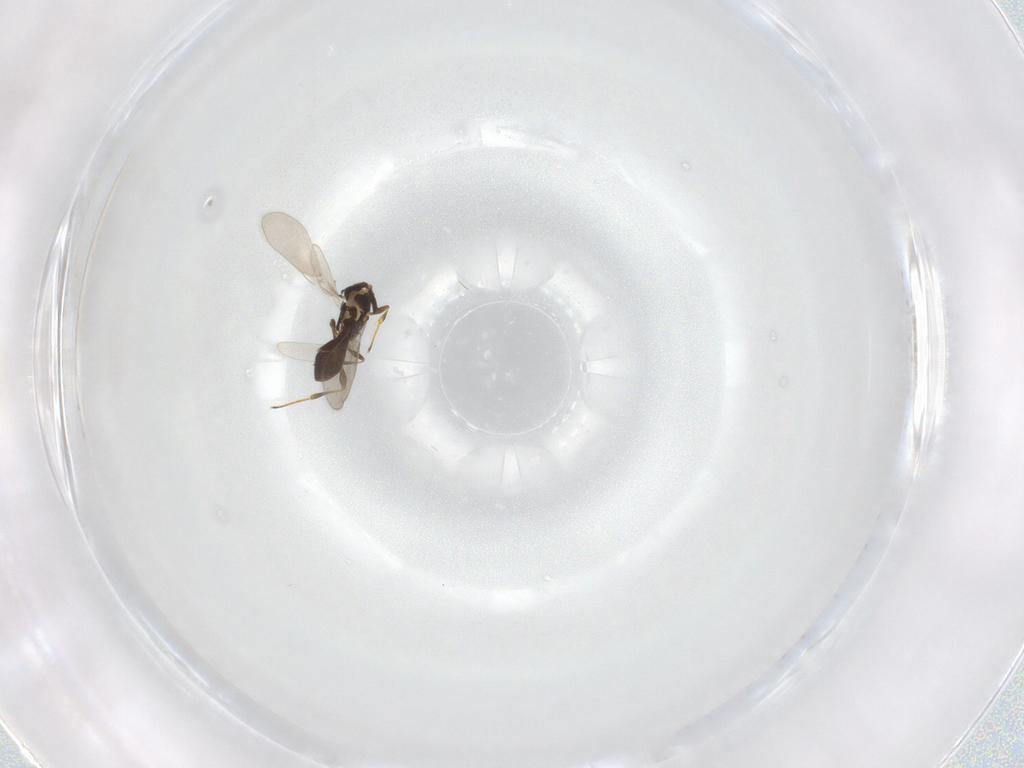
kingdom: Animalia
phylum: Arthropoda
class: Insecta
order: Hymenoptera
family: Platygastridae
